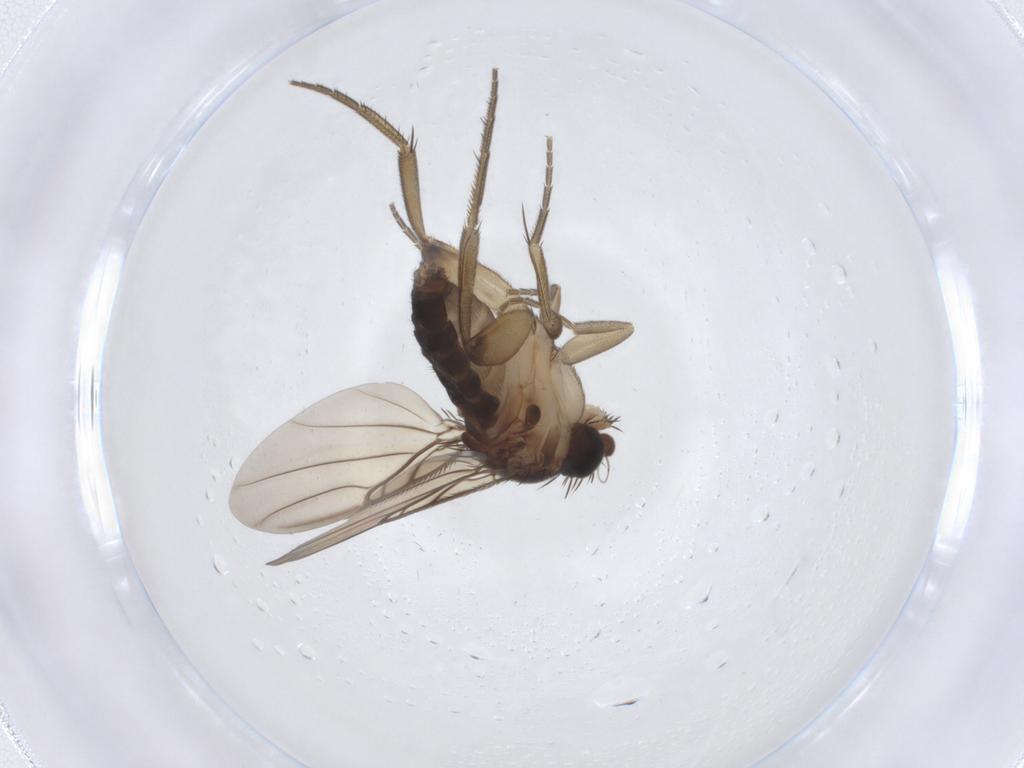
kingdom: Animalia
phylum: Arthropoda
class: Insecta
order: Diptera
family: Phoridae
